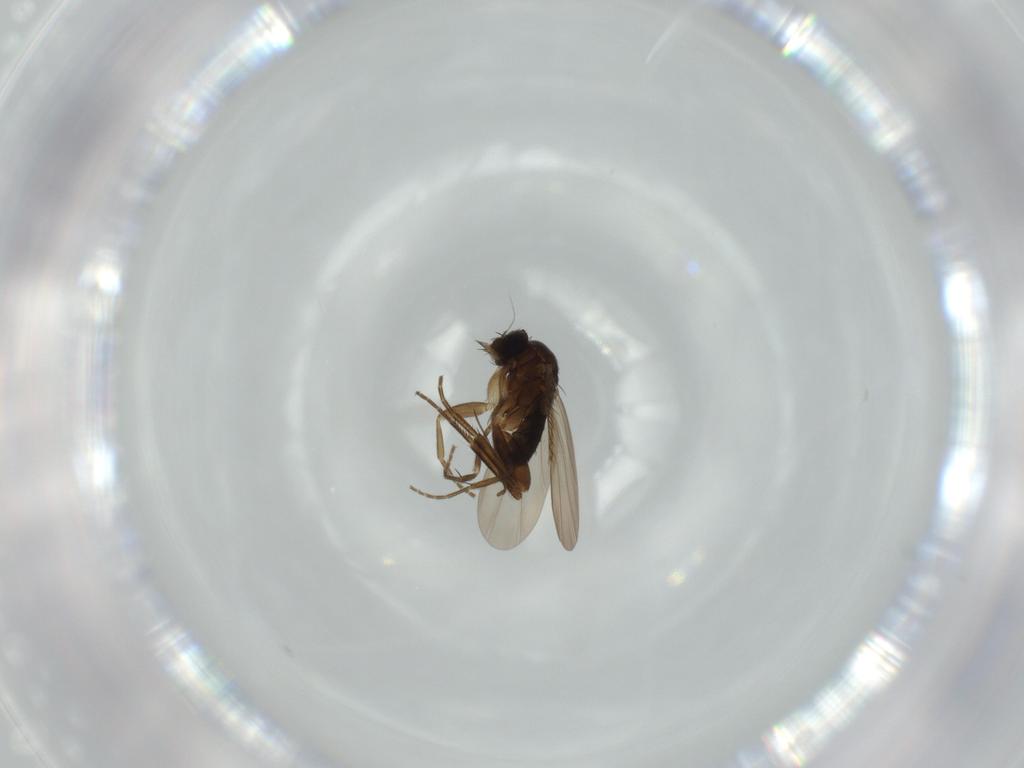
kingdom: Animalia
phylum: Arthropoda
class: Insecta
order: Diptera
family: Phoridae
